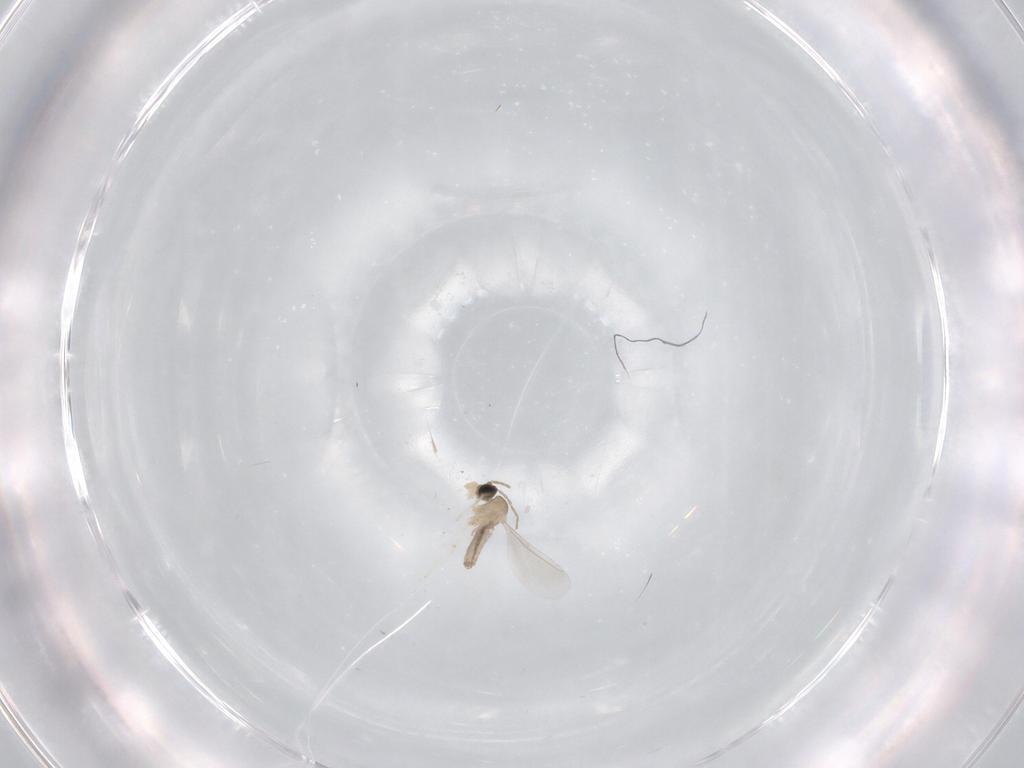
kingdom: Animalia
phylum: Arthropoda
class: Insecta
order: Diptera
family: Cecidomyiidae
